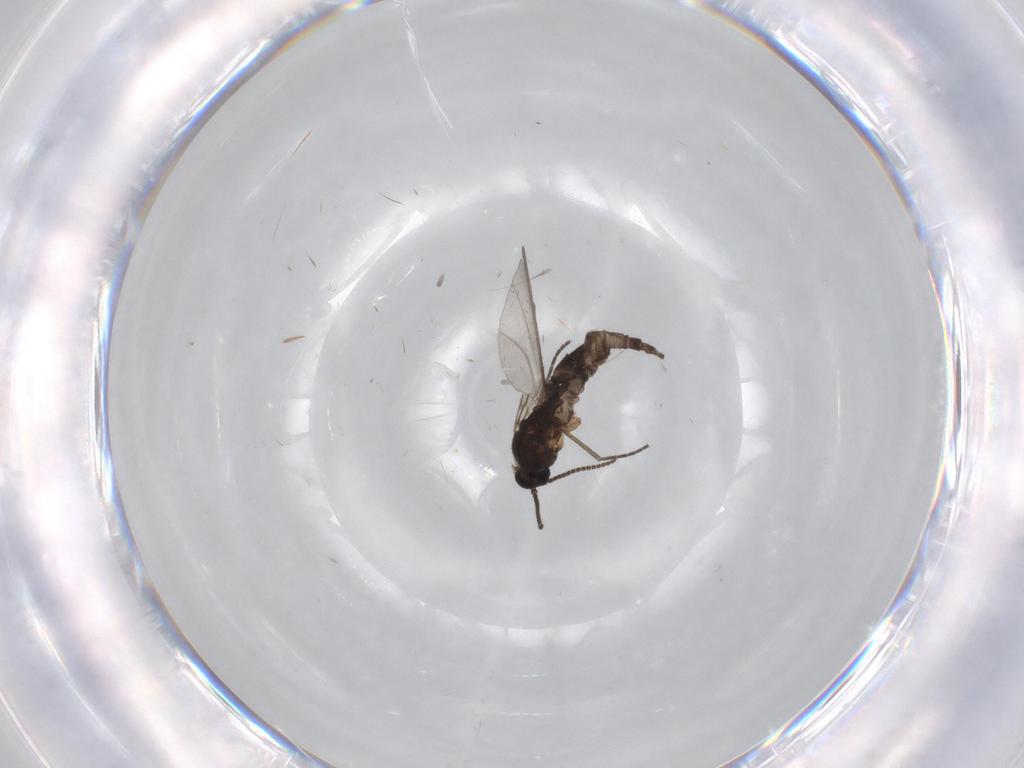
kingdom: Animalia
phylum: Arthropoda
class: Insecta
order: Diptera
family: Sciaridae
